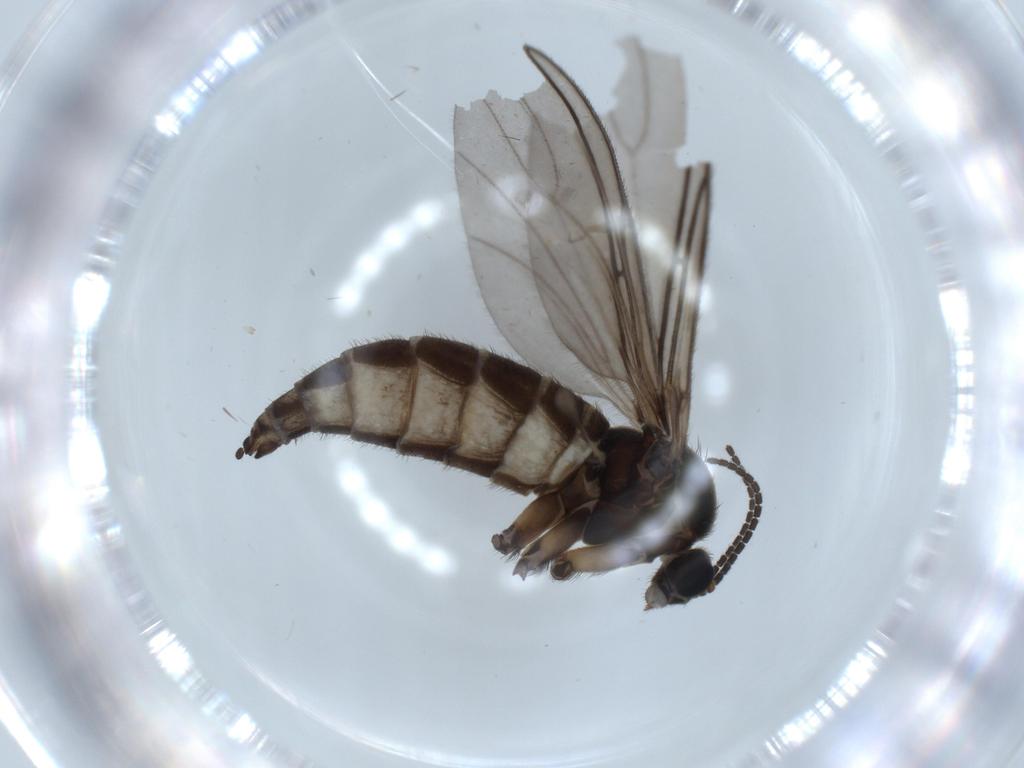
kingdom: Animalia
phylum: Arthropoda
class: Insecta
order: Diptera
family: Sciaridae
